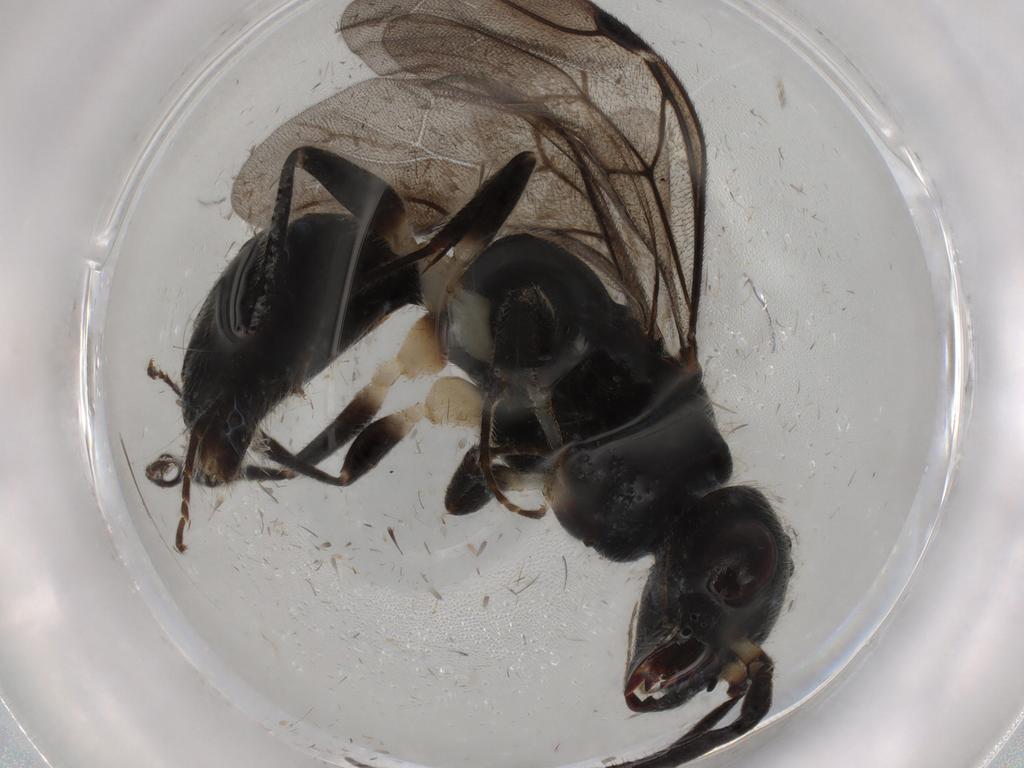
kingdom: Animalia
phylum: Arthropoda
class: Insecta
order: Hymenoptera
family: Bethylidae
